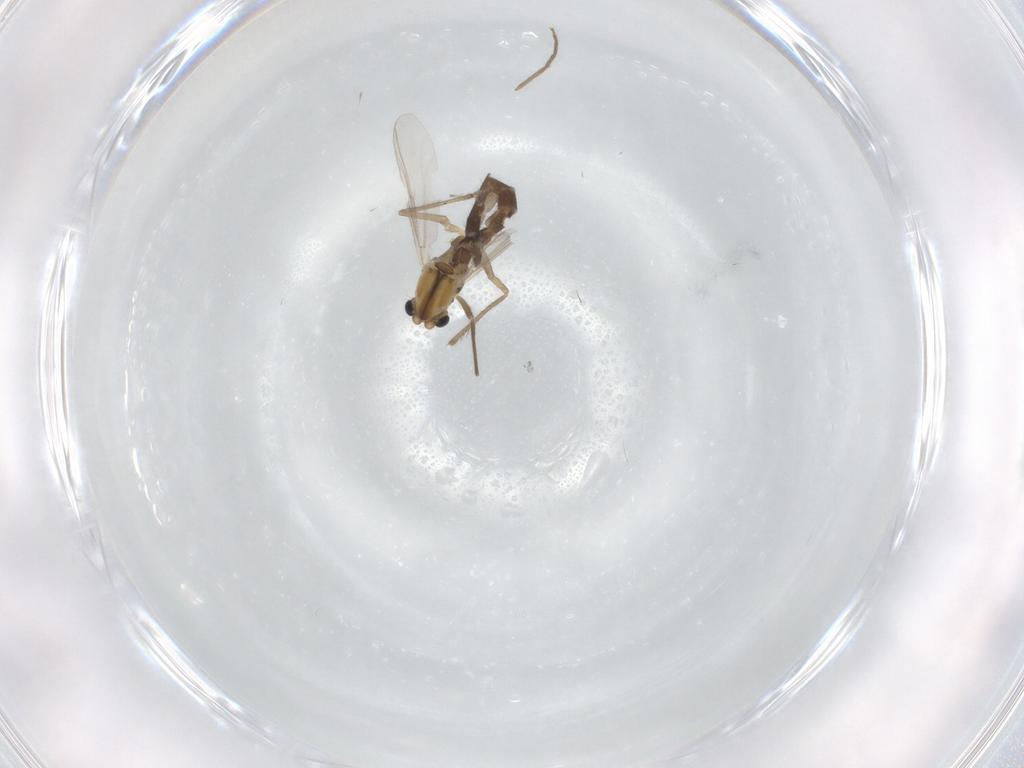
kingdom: Animalia
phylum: Arthropoda
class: Insecta
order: Diptera
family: Chironomidae
